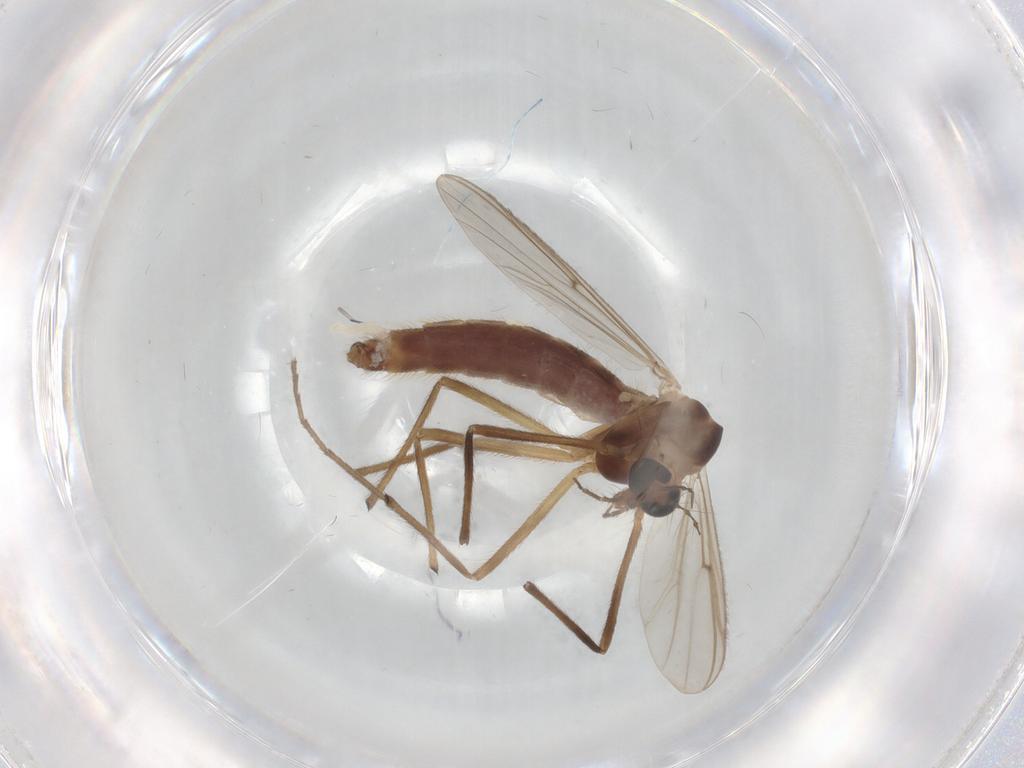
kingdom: Animalia
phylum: Arthropoda
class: Insecta
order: Diptera
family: Chironomidae
